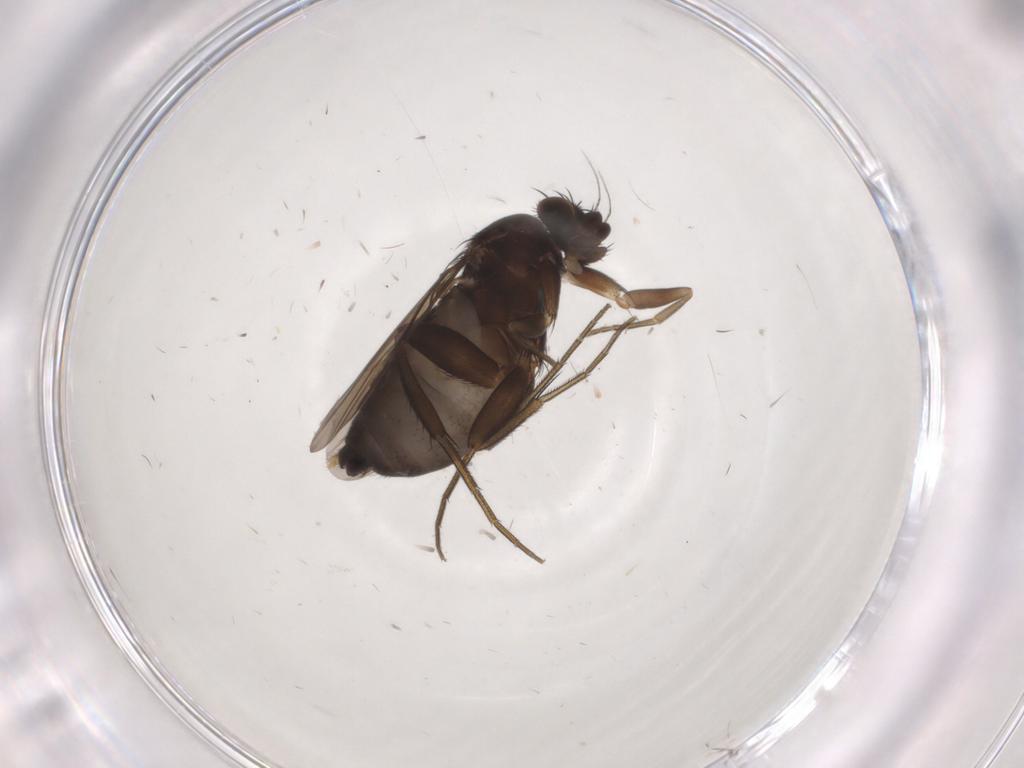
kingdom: Animalia
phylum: Arthropoda
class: Insecta
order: Diptera
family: Phoridae
